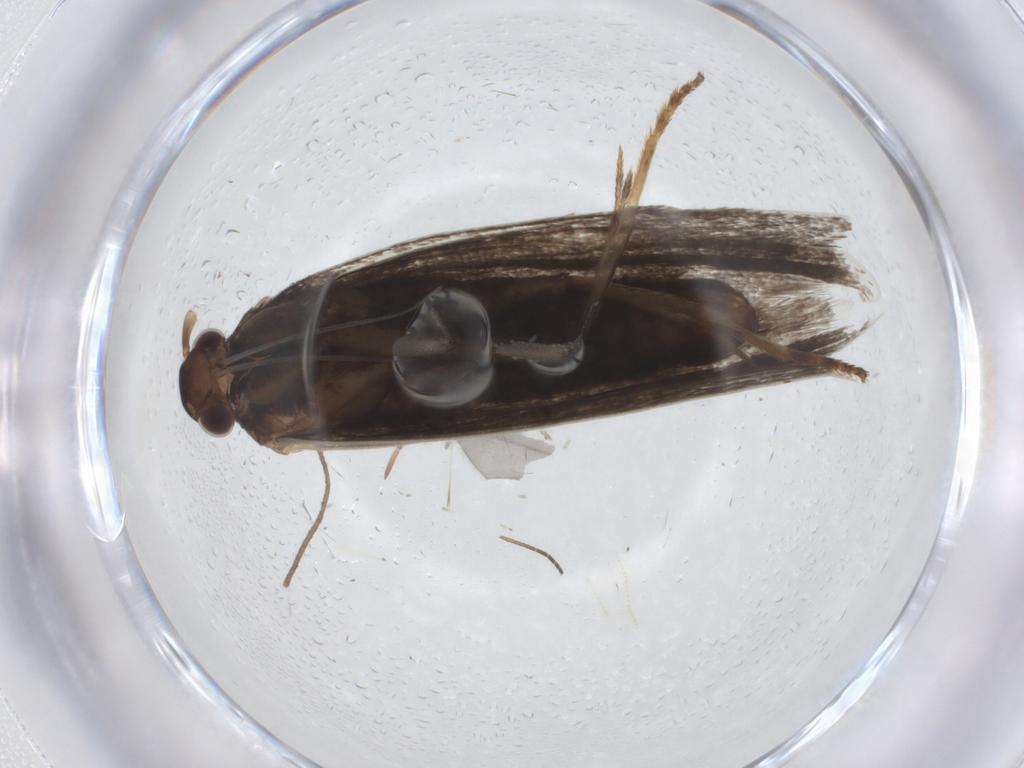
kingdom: Animalia
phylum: Arthropoda
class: Insecta
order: Lepidoptera
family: Lecithoceridae
